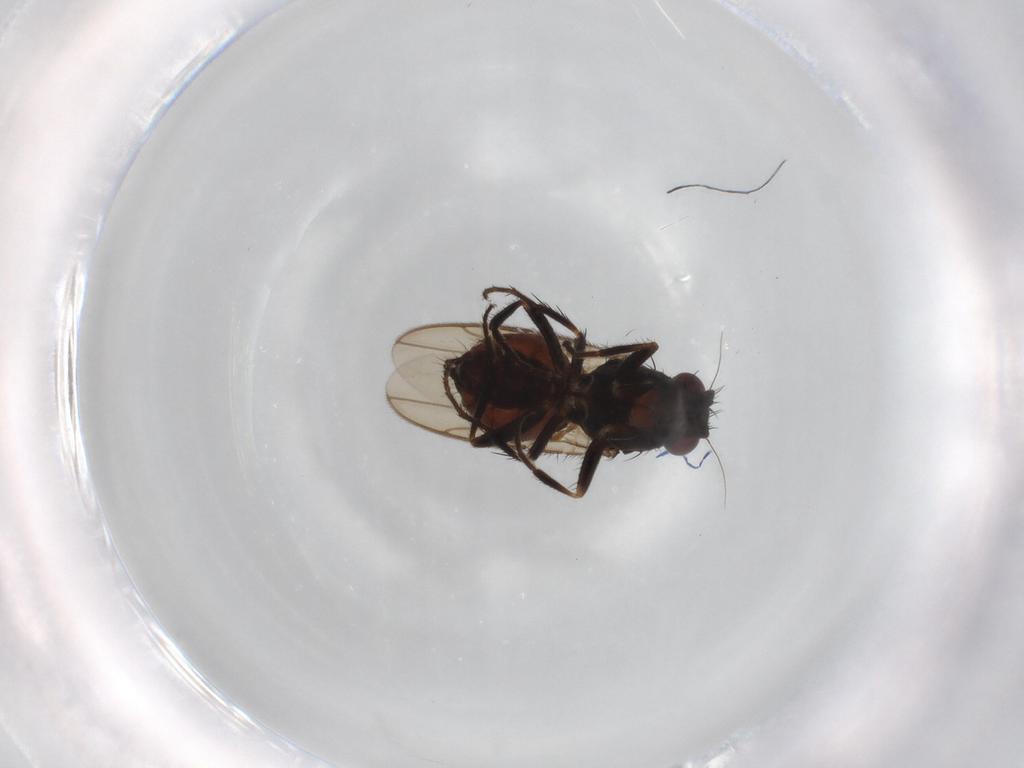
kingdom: Animalia
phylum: Arthropoda
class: Insecta
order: Diptera
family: Sphaeroceridae
